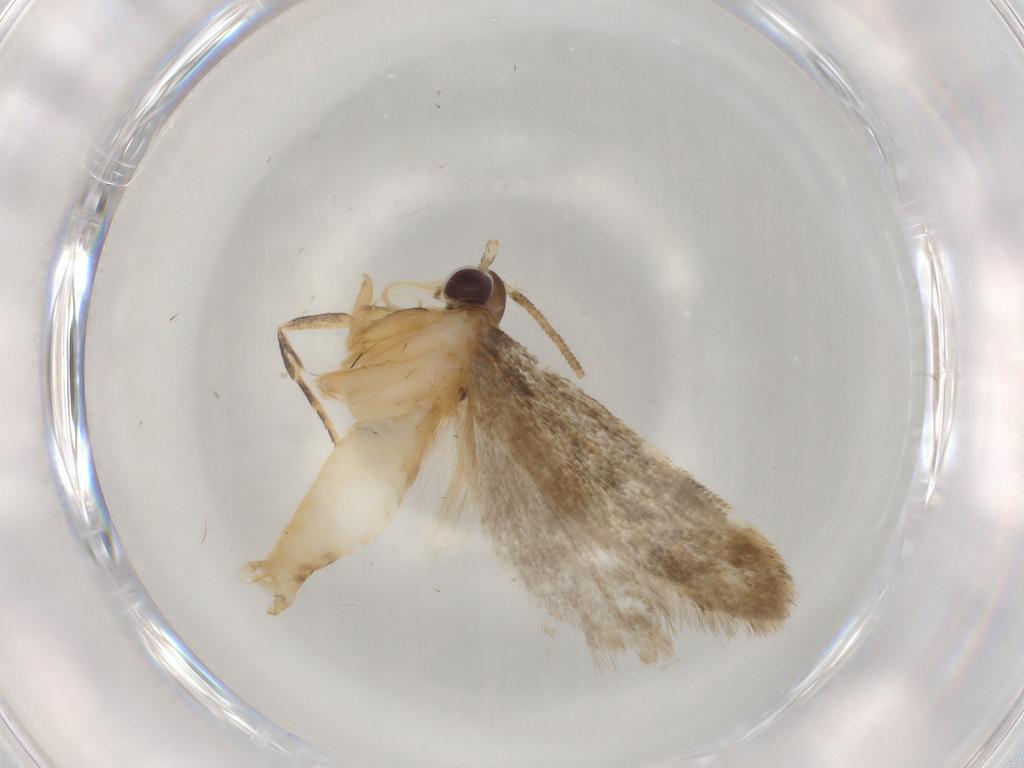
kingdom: Animalia
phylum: Arthropoda
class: Insecta
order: Lepidoptera
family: Autostichidae
